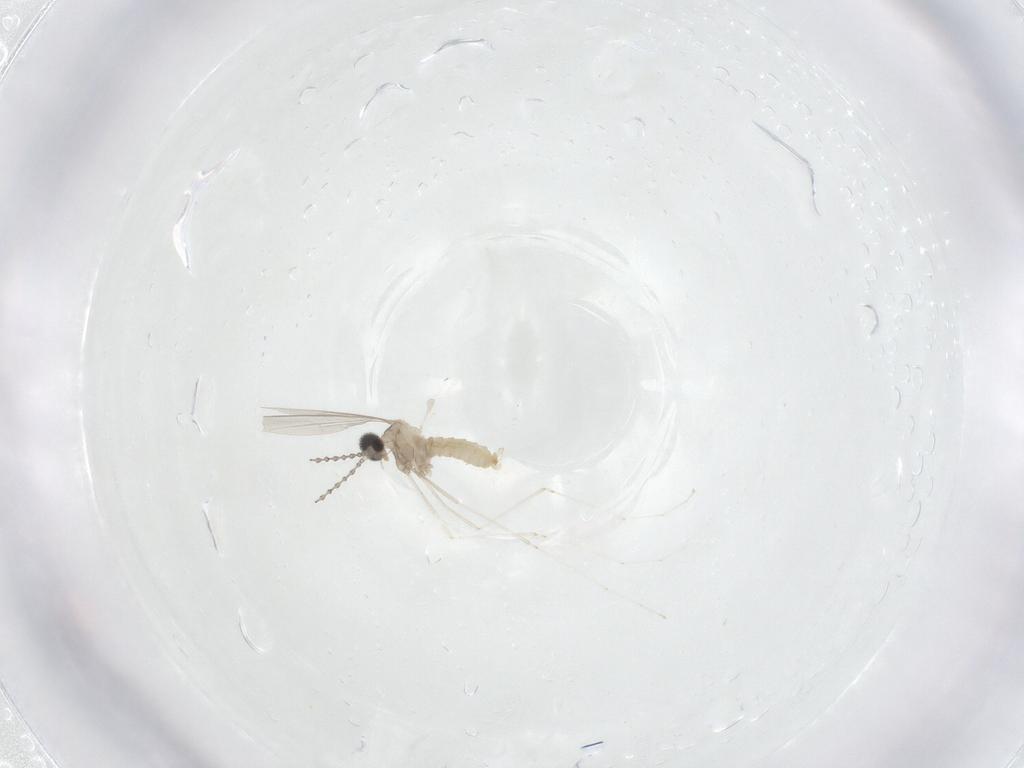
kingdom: Animalia
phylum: Arthropoda
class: Insecta
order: Diptera
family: Cecidomyiidae
